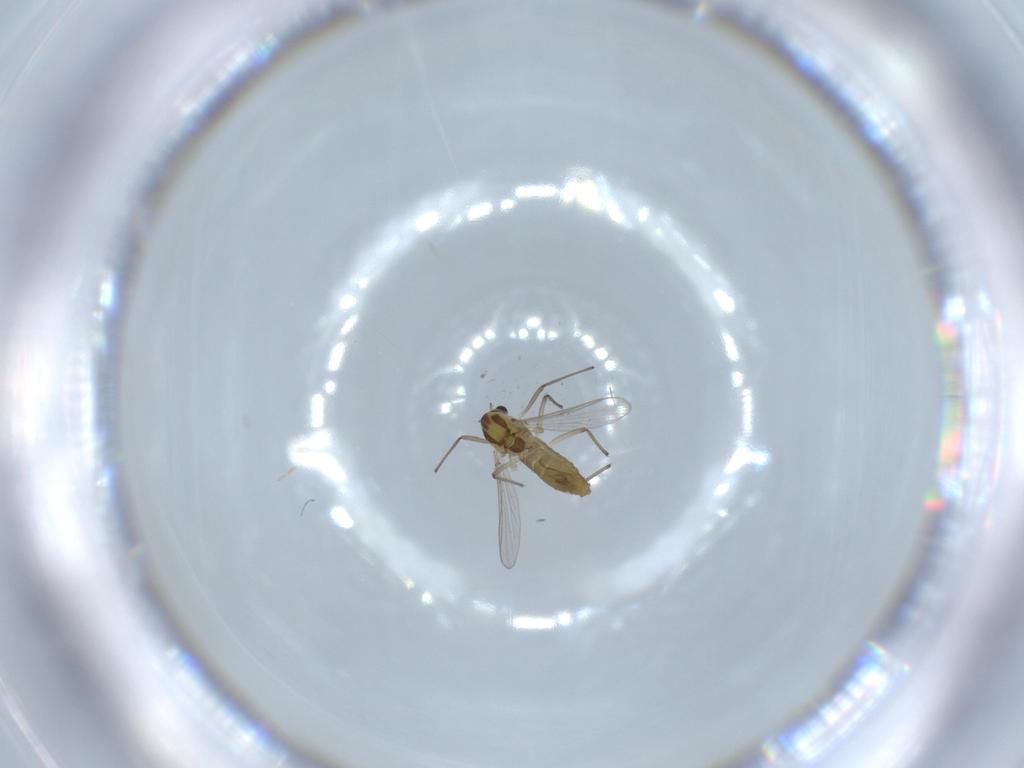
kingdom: Animalia
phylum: Arthropoda
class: Insecta
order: Diptera
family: Chironomidae
